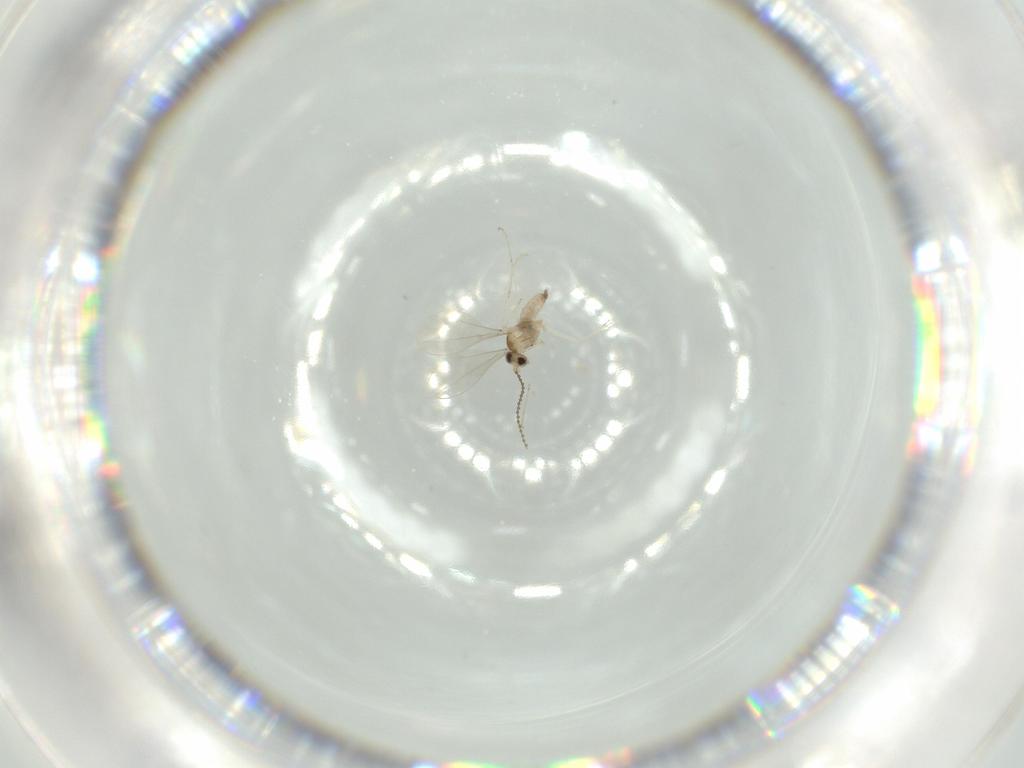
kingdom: Animalia
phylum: Arthropoda
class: Insecta
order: Diptera
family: Cecidomyiidae
